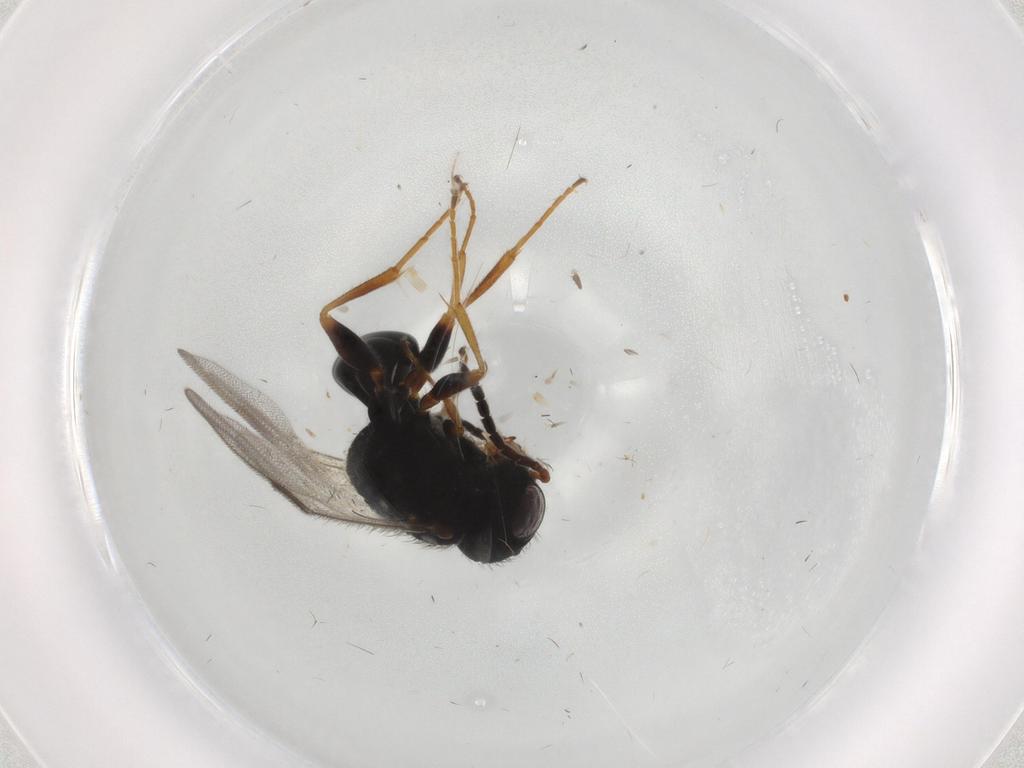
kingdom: Animalia
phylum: Arthropoda
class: Insecta
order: Hymenoptera
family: Dryinidae
